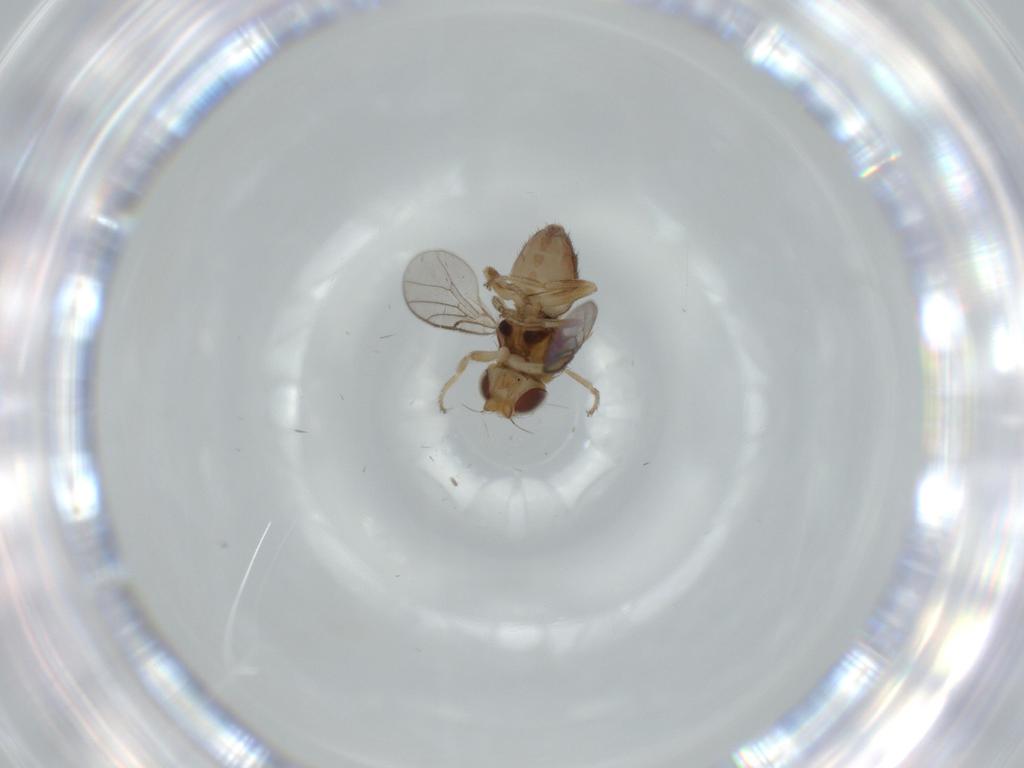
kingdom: Animalia
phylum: Arthropoda
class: Insecta
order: Diptera
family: Chloropidae
